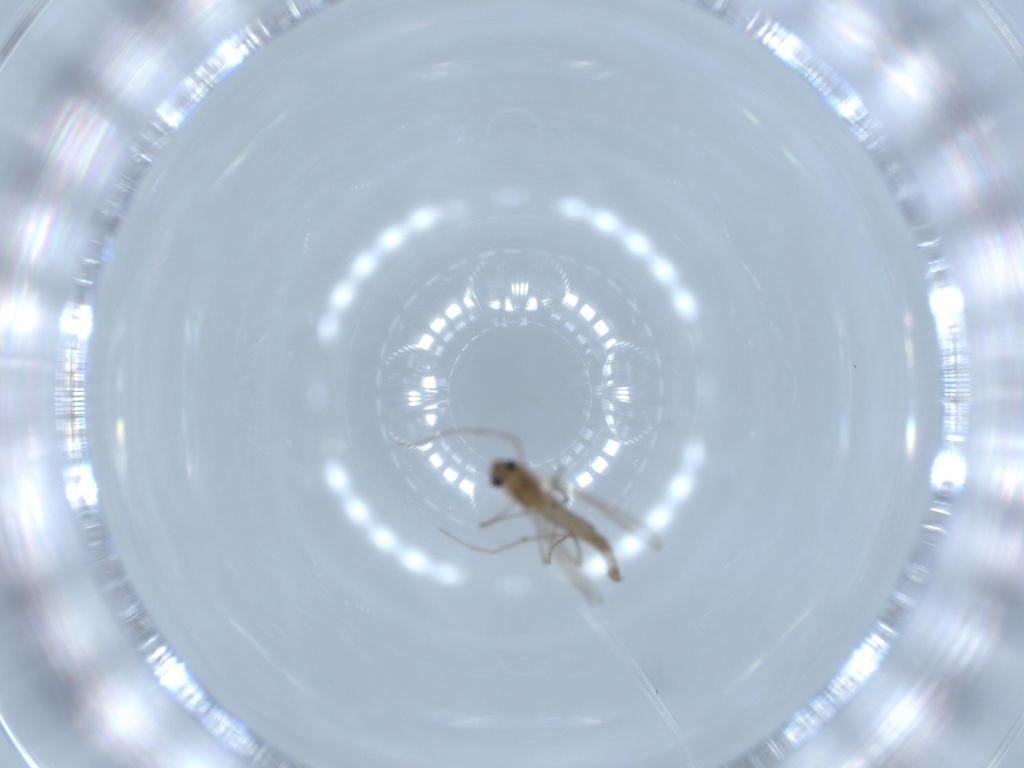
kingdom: Animalia
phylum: Arthropoda
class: Insecta
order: Diptera
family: Chironomidae
